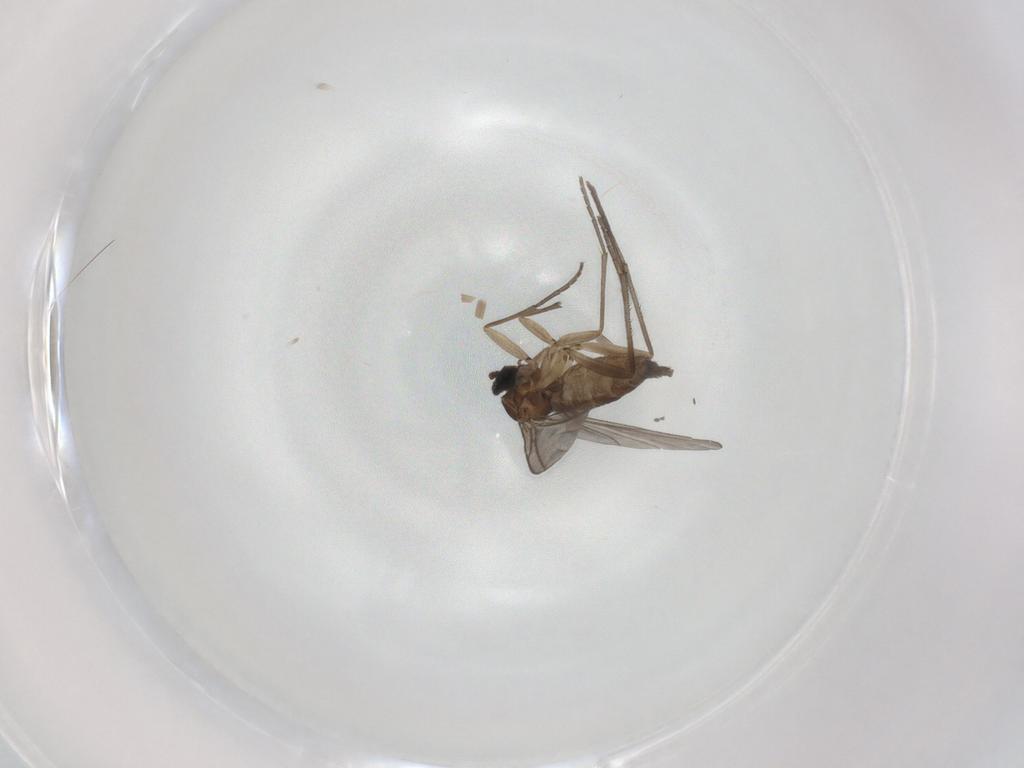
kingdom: Animalia
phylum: Arthropoda
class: Insecta
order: Diptera
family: Sciaridae
